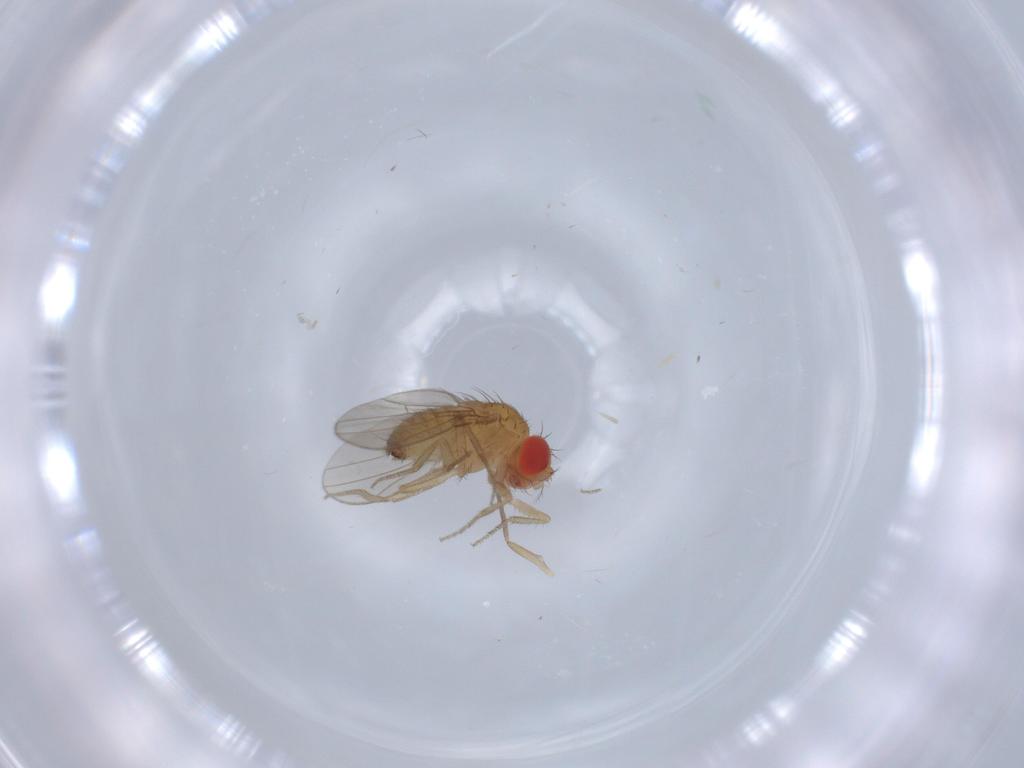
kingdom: Animalia
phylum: Arthropoda
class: Insecta
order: Diptera
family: Drosophilidae
